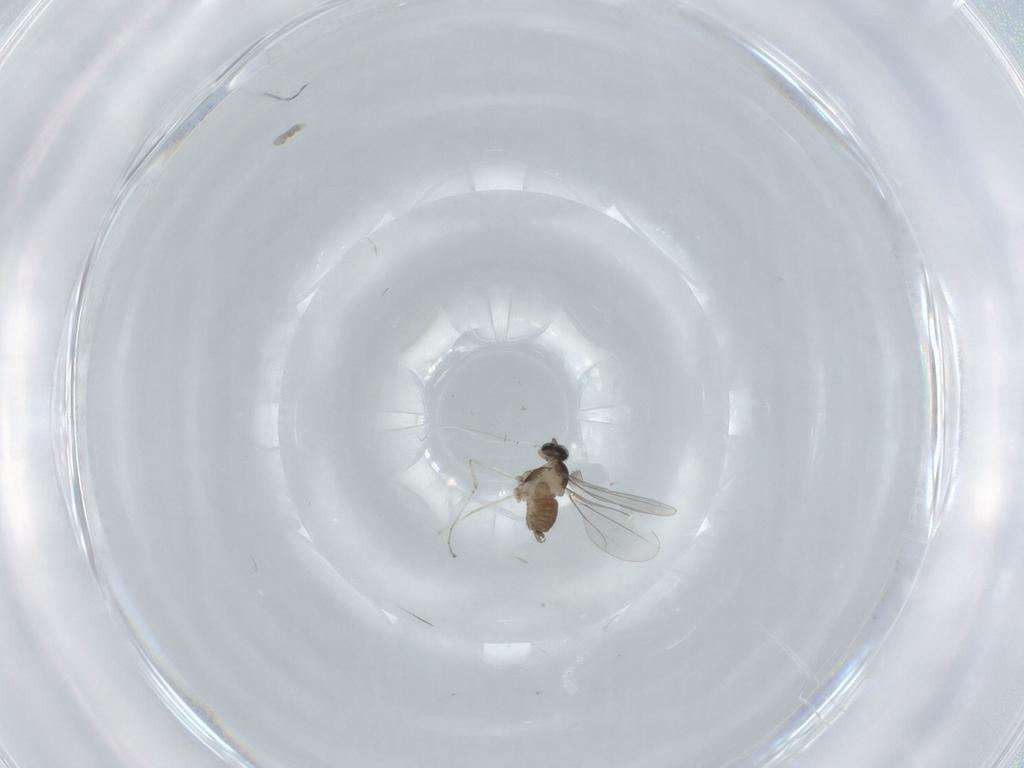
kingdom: Animalia
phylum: Arthropoda
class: Insecta
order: Diptera
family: Cecidomyiidae
